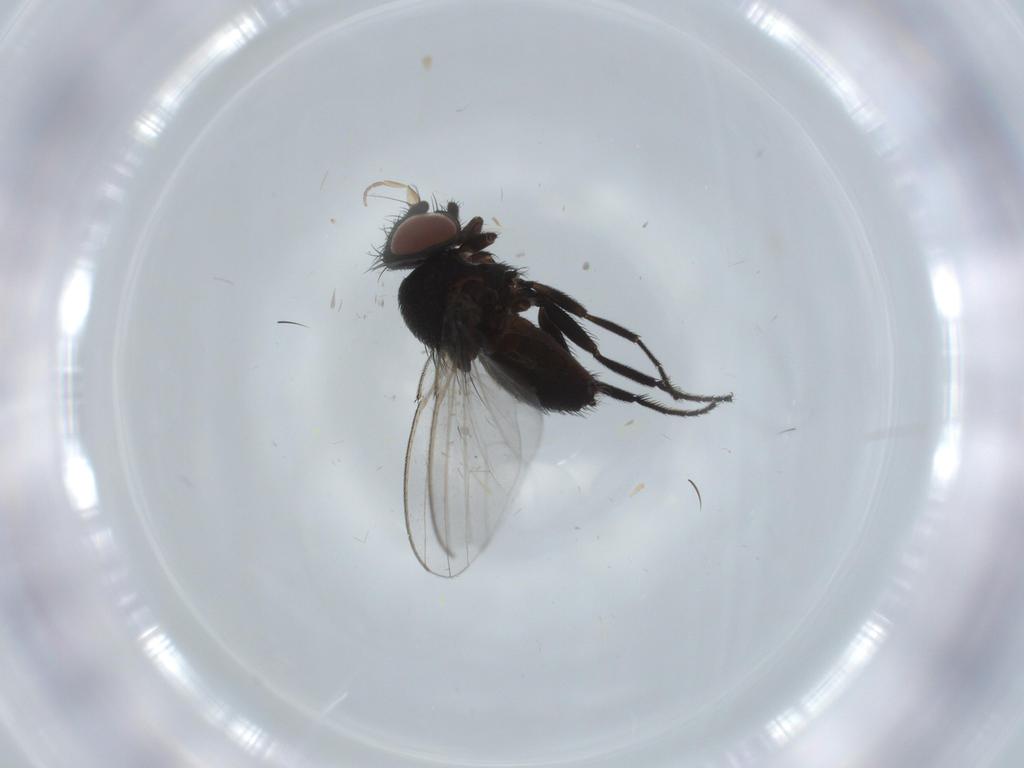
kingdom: Animalia
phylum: Arthropoda
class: Insecta
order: Diptera
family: Milichiidae
